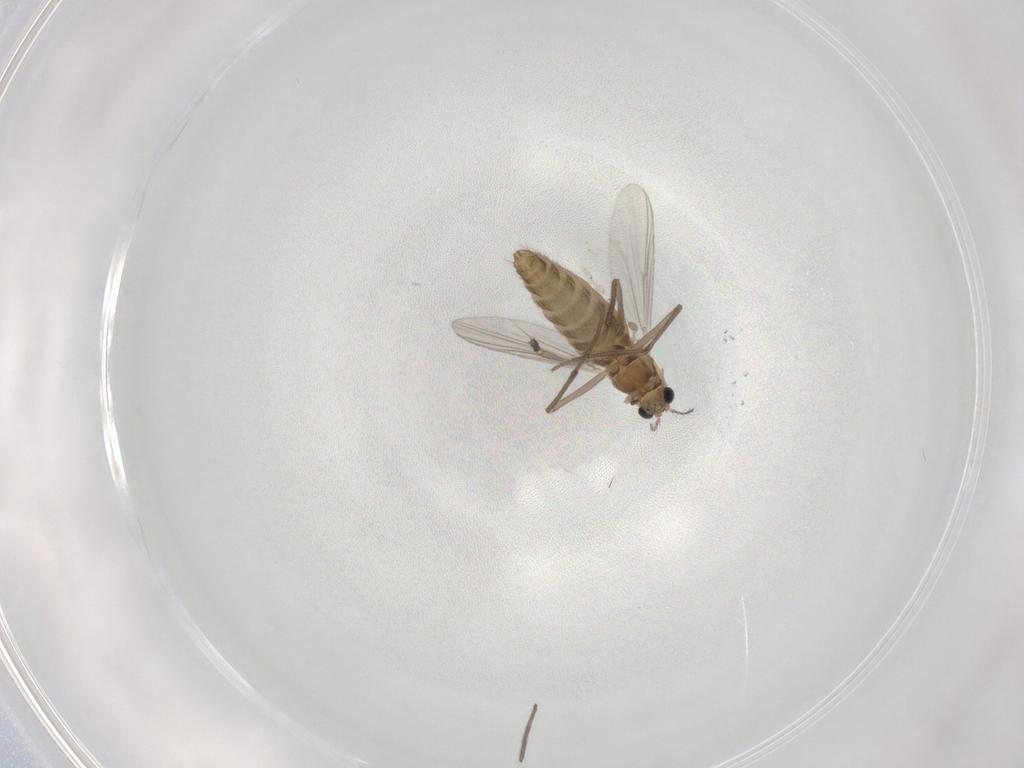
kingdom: Animalia
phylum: Arthropoda
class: Insecta
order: Diptera
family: Chironomidae
